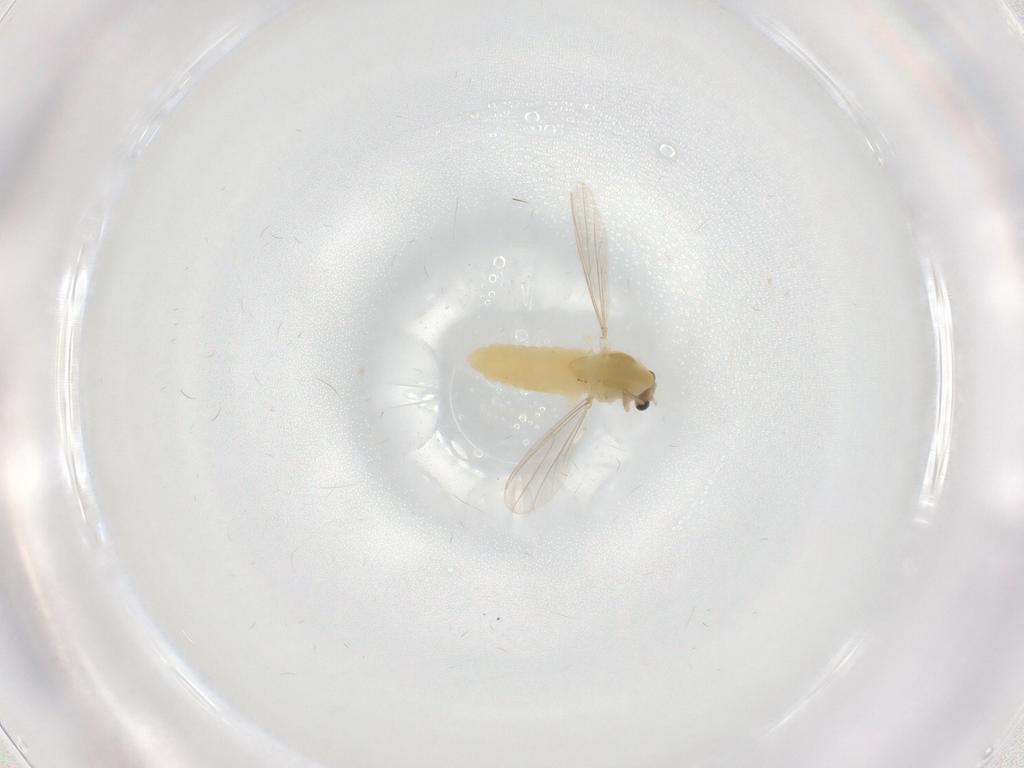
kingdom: Animalia
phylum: Arthropoda
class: Insecta
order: Diptera
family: Chironomidae
